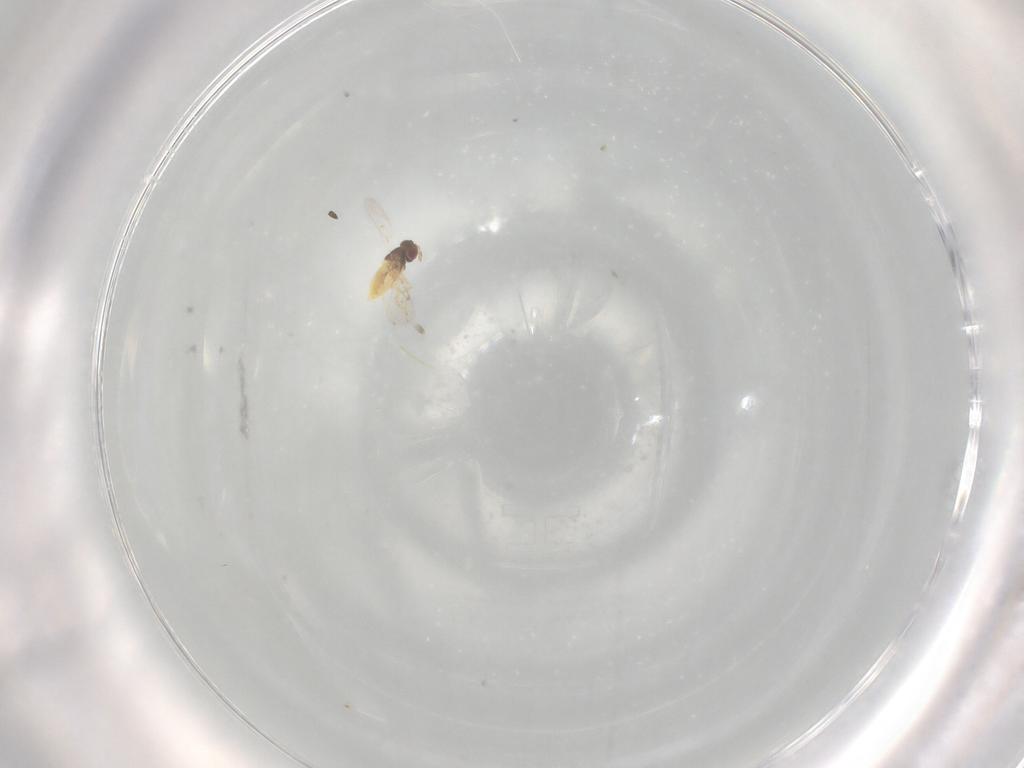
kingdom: Animalia
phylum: Arthropoda
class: Insecta
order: Hymenoptera
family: Trichogrammatidae
